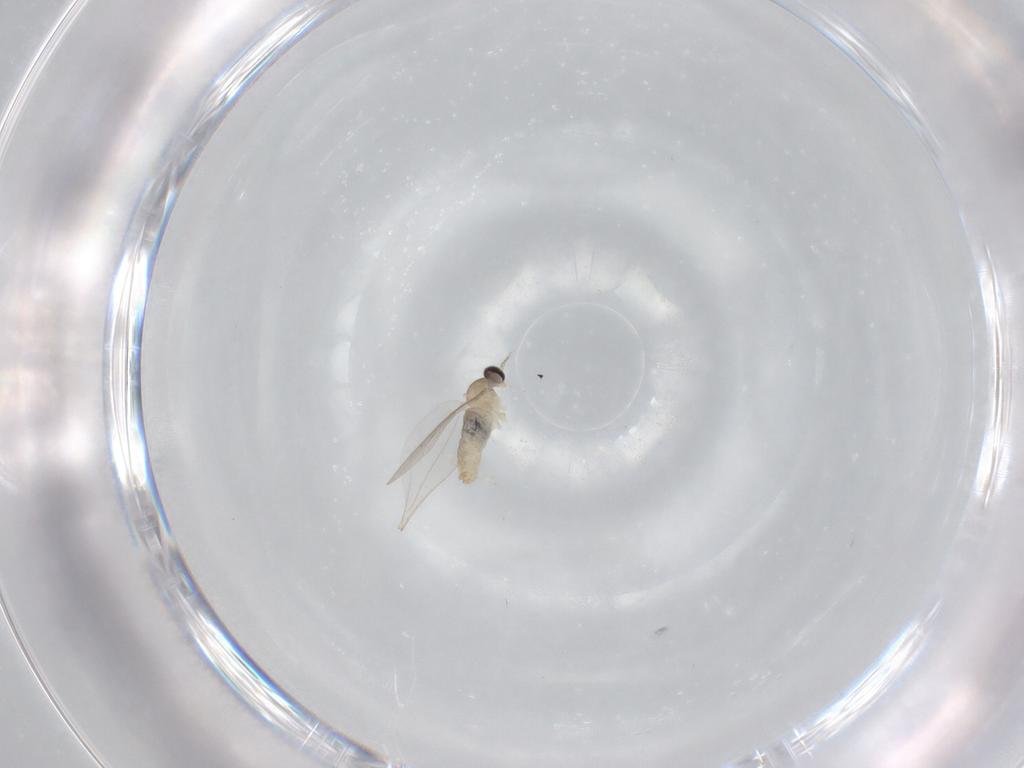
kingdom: Animalia
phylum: Arthropoda
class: Insecta
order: Diptera
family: Cecidomyiidae
